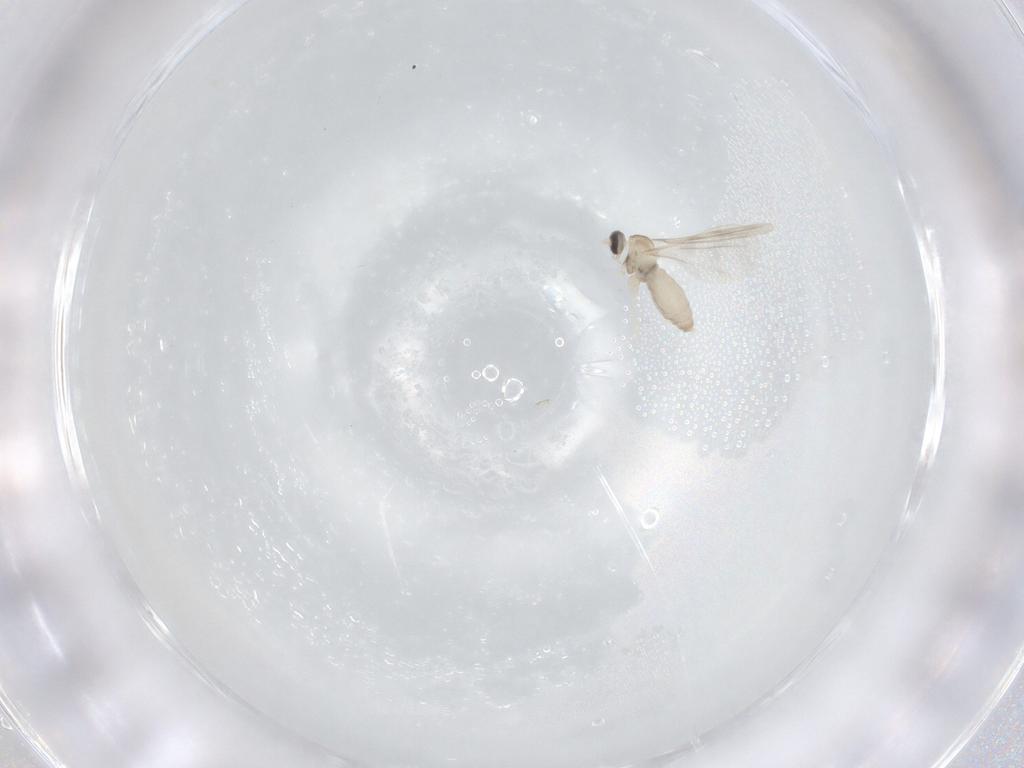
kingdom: Animalia
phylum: Arthropoda
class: Insecta
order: Diptera
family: Cecidomyiidae
